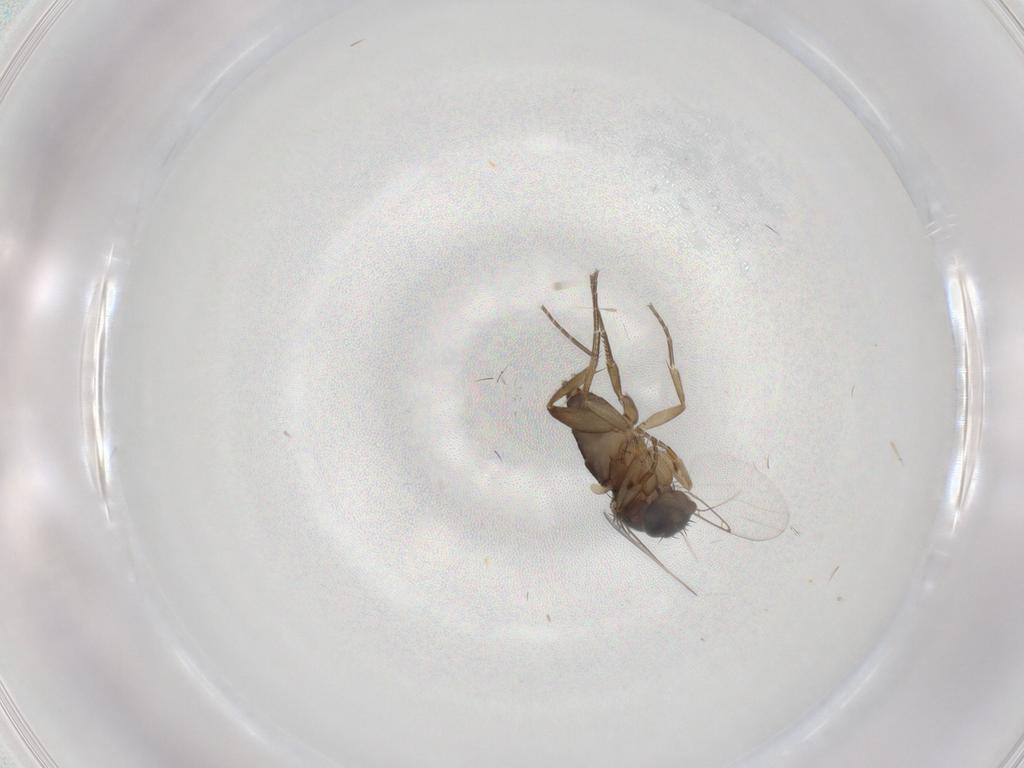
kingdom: Animalia
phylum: Arthropoda
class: Insecta
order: Diptera
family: Phoridae
